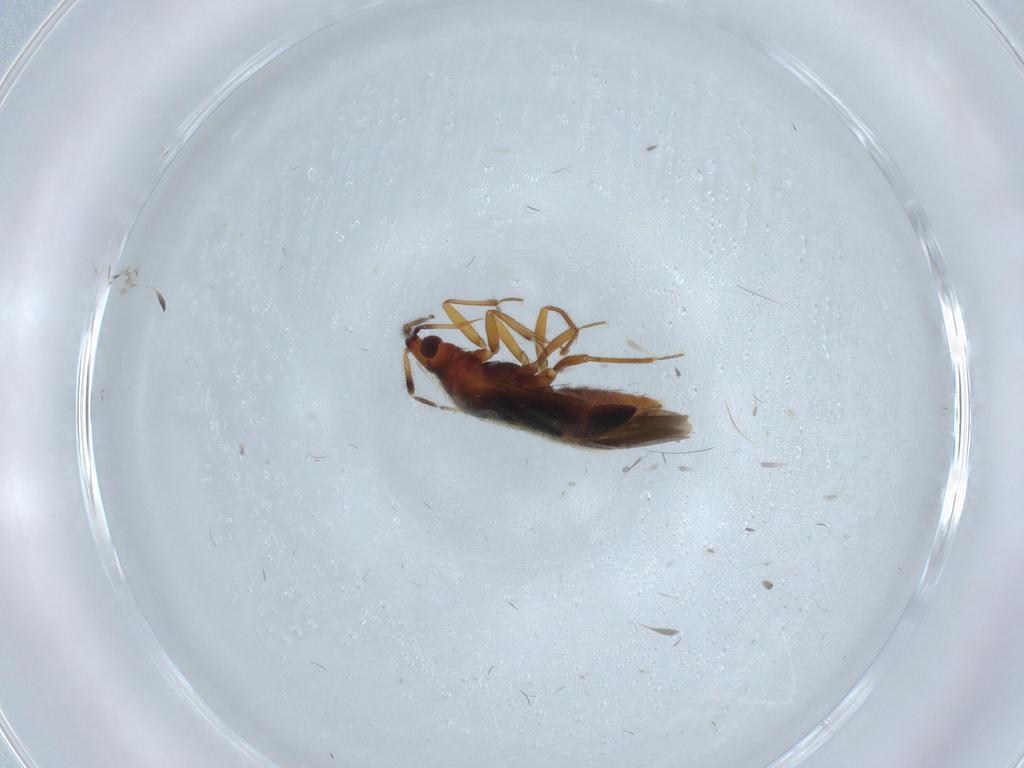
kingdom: Animalia
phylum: Arthropoda
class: Insecta
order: Hemiptera
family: Anthocoridae
